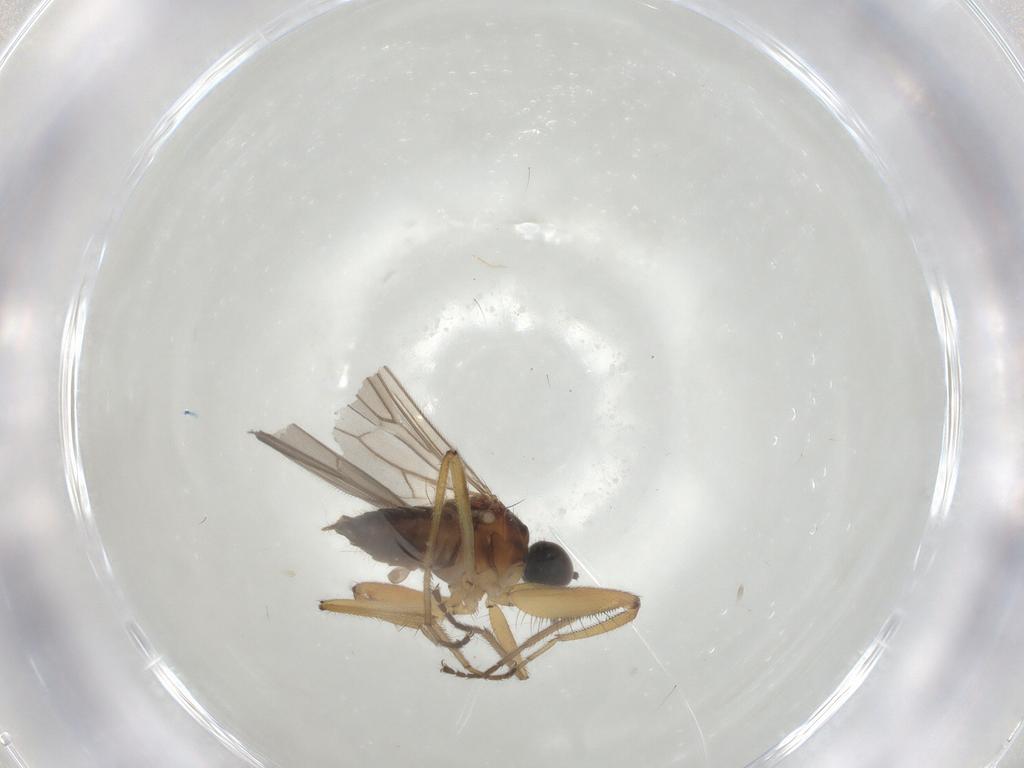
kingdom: Animalia
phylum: Arthropoda
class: Insecta
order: Diptera
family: Hybotidae
